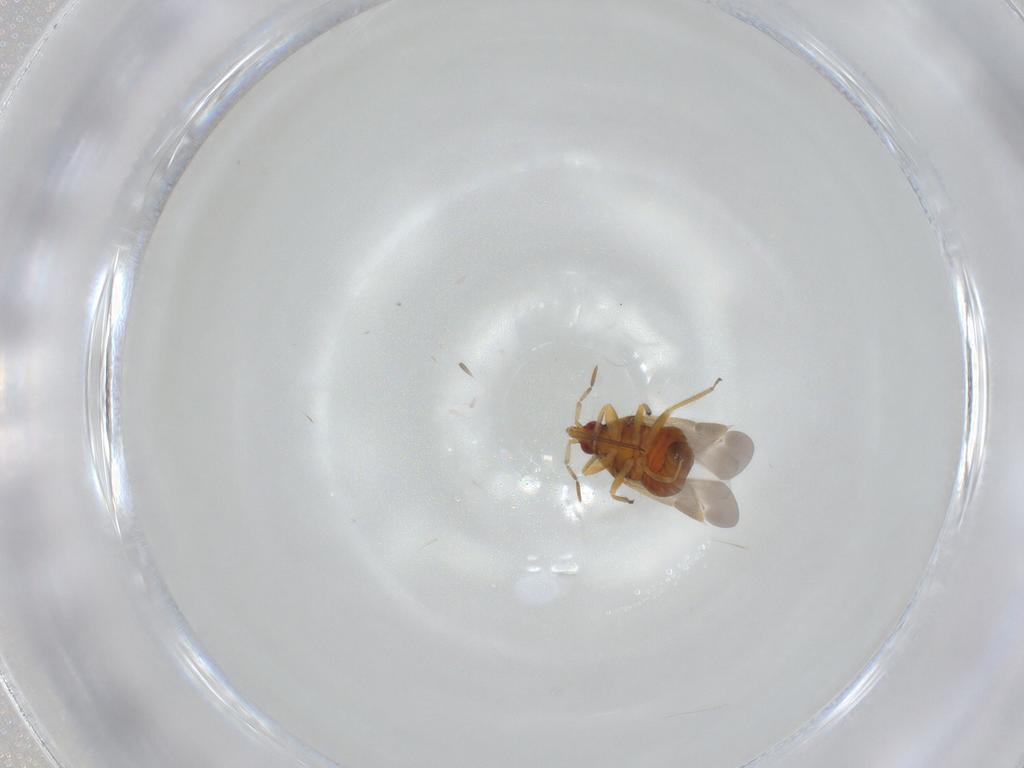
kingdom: Animalia
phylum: Arthropoda
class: Insecta
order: Hemiptera
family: Anthocoridae
